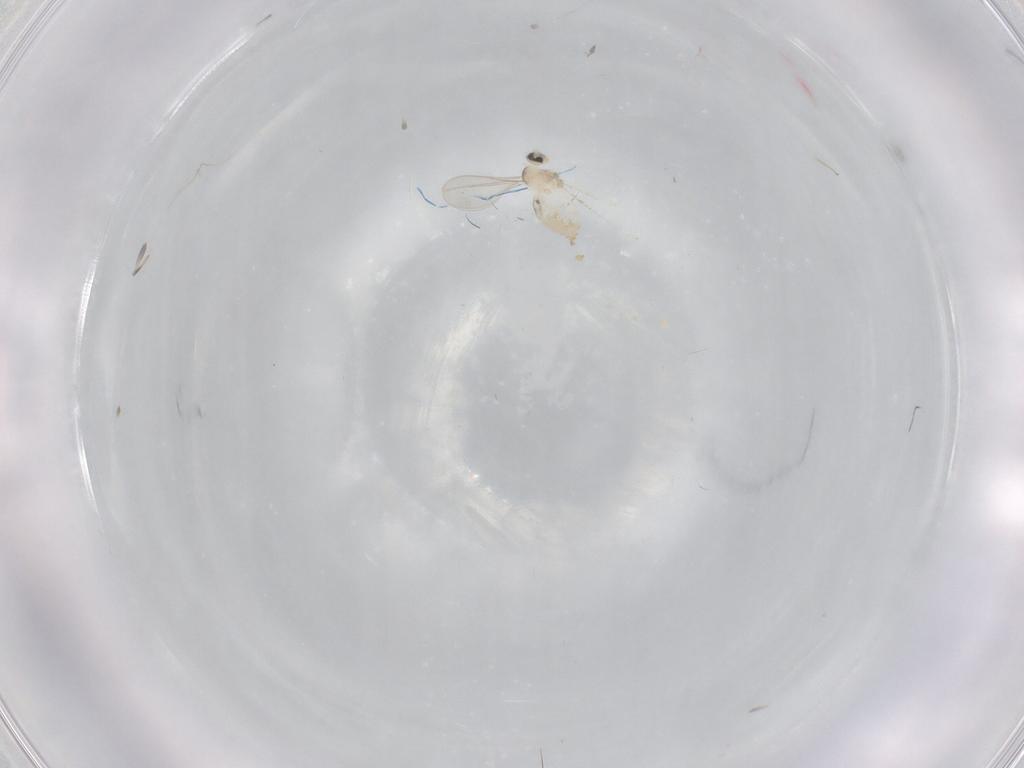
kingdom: Animalia
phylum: Arthropoda
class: Insecta
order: Diptera
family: Cecidomyiidae
